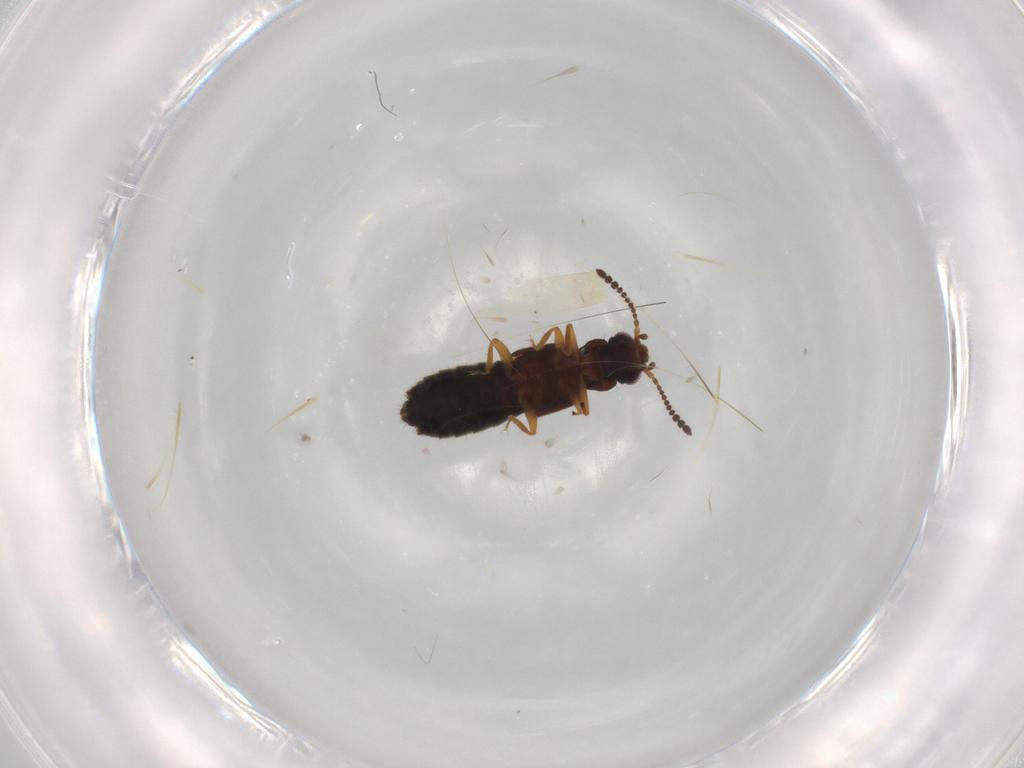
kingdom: Animalia
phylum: Arthropoda
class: Insecta
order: Coleoptera
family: Staphylinidae
